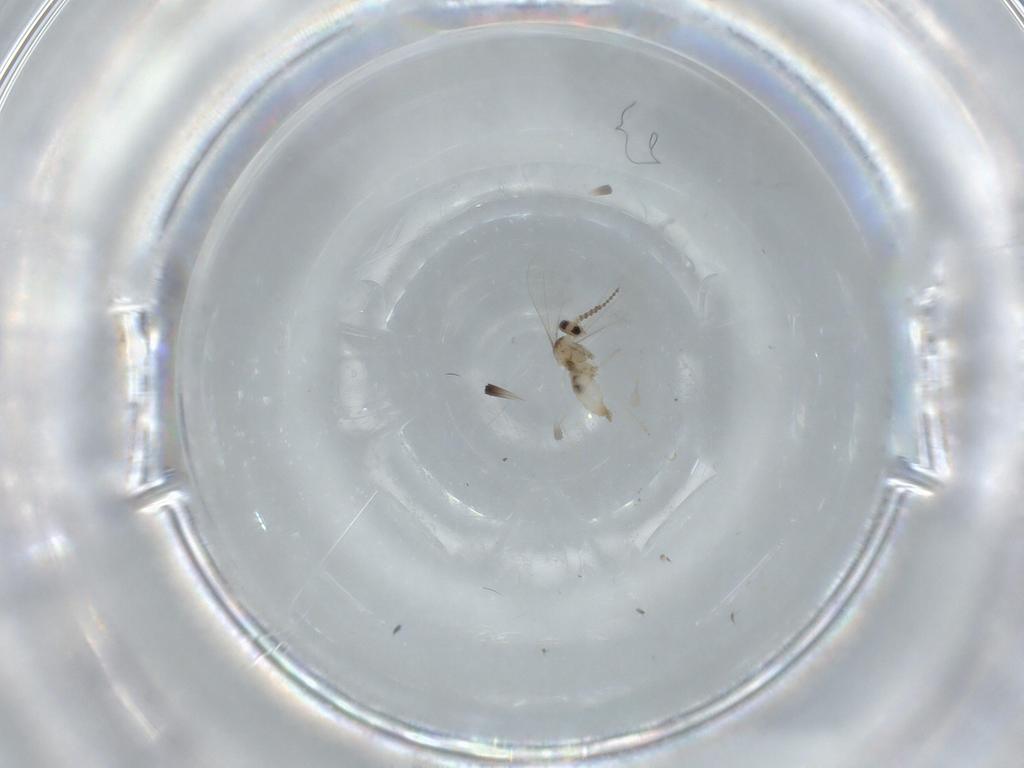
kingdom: Animalia
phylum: Arthropoda
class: Insecta
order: Diptera
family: Cecidomyiidae
